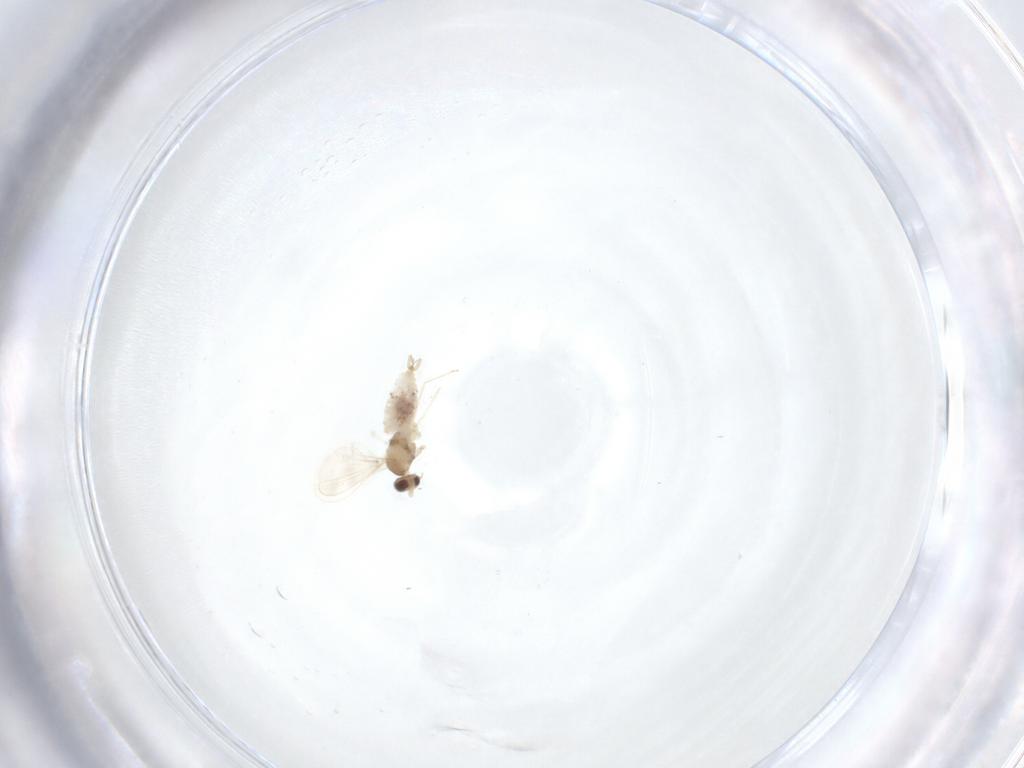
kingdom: Animalia
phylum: Arthropoda
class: Insecta
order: Diptera
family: Cecidomyiidae
